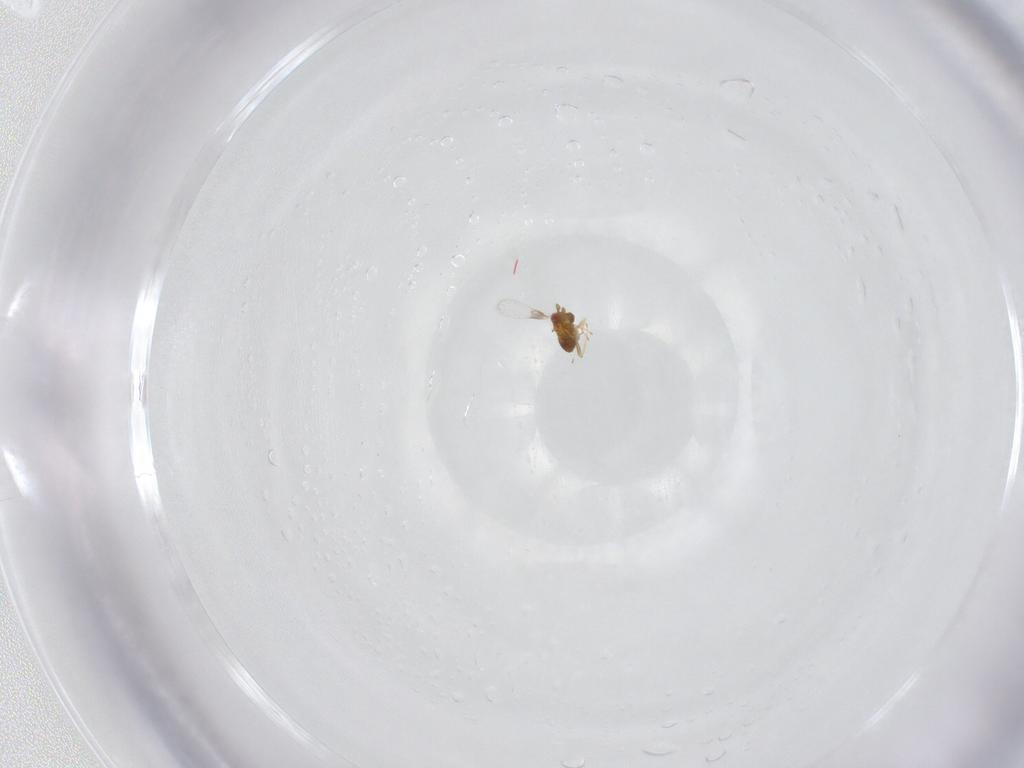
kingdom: Animalia
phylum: Arthropoda
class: Insecta
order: Hymenoptera
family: Trichogrammatidae
